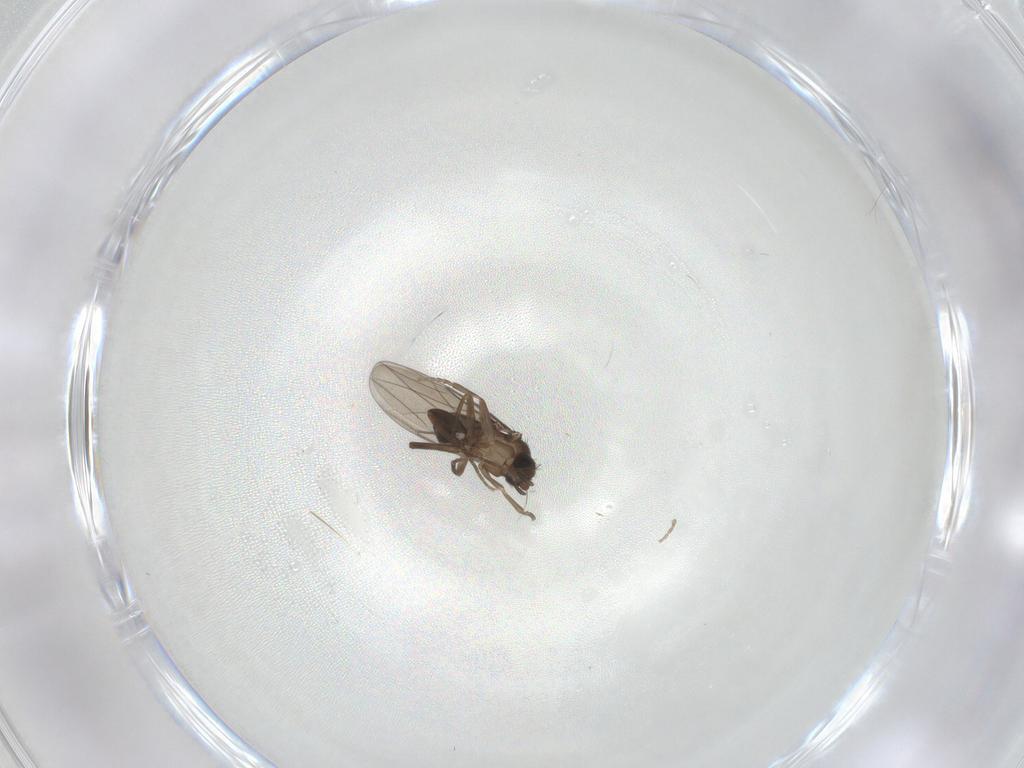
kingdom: Animalia
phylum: Arthropoda
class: Insecta
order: Diptera
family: Phoridae
